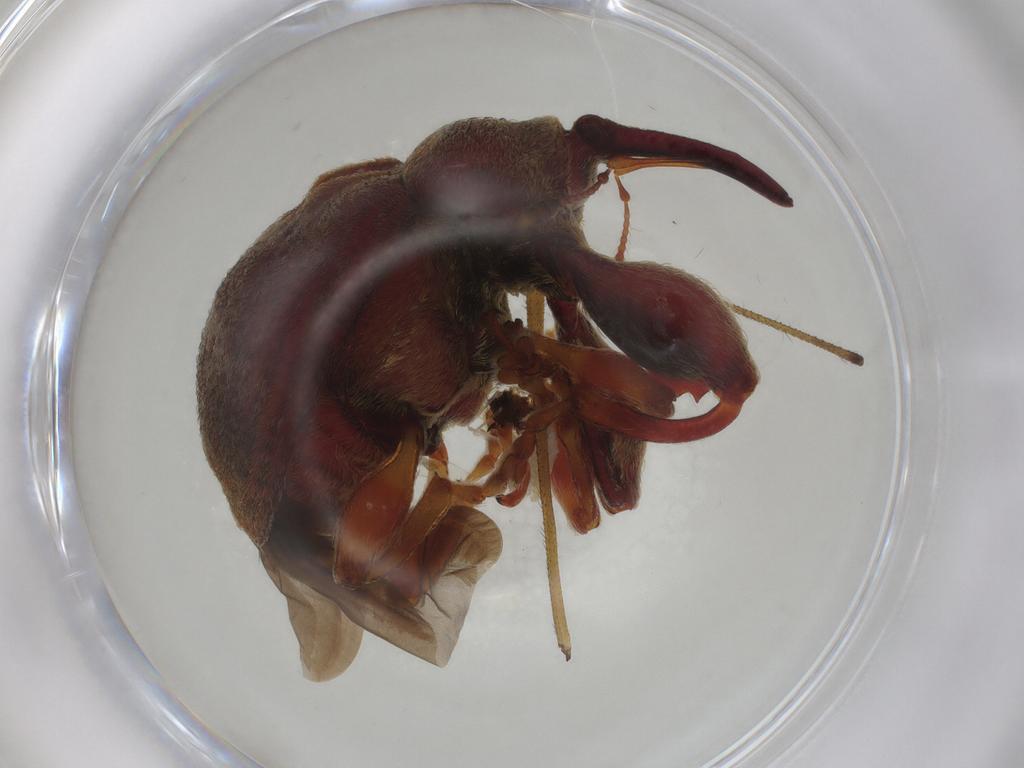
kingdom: Animalia
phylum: Arthropoda
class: Insecta
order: Coleoptera
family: Curculionidae
